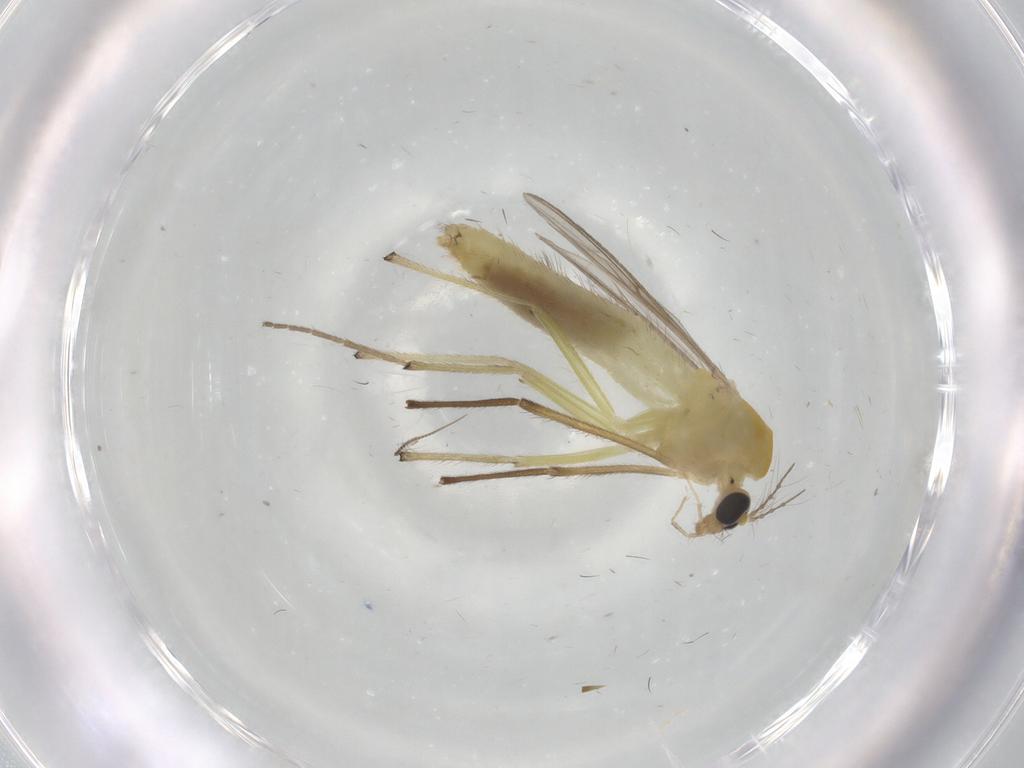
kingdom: Animalia
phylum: Arthropoda
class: Insecta
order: Diptera
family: Chironomidae
